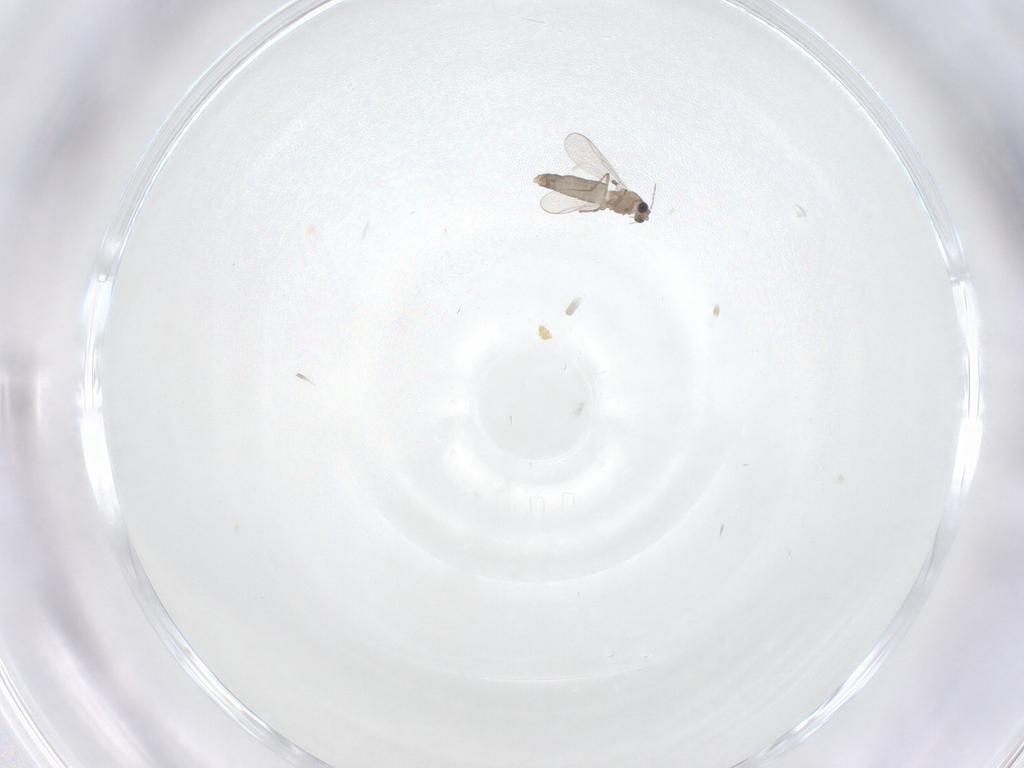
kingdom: Animalia
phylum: Arthropoda
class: Insecta
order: Diptera
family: Chironomidae
